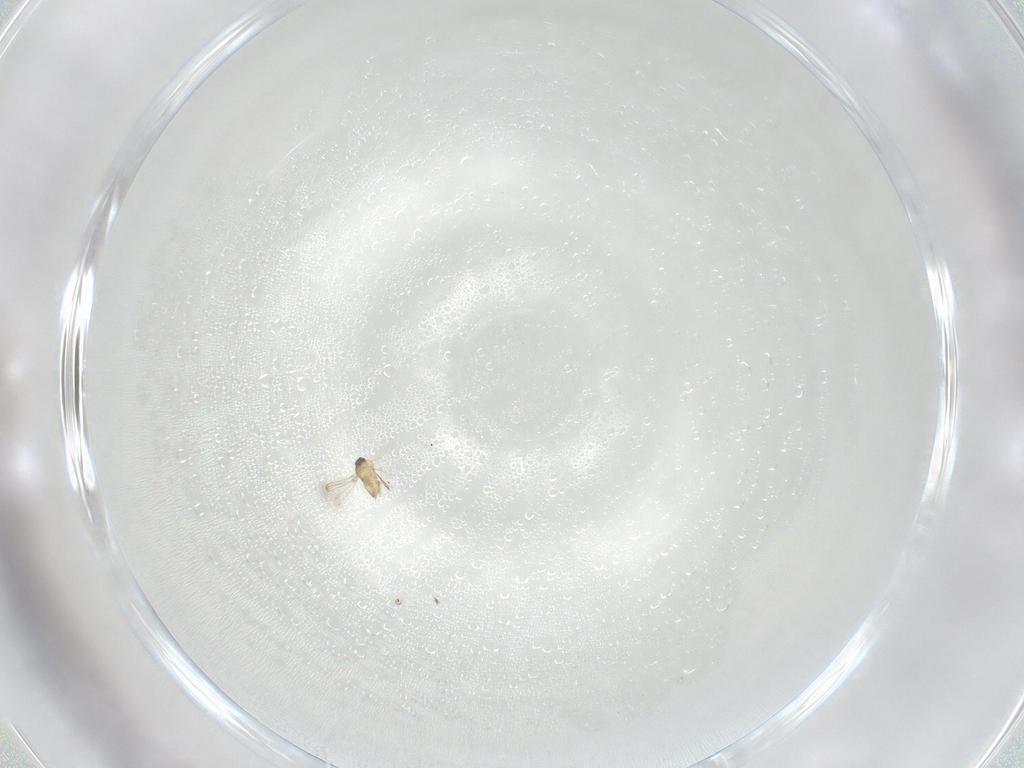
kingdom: Animalia
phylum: Arthropoda
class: Insecta
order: Hymenoptera
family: Mymaridae
